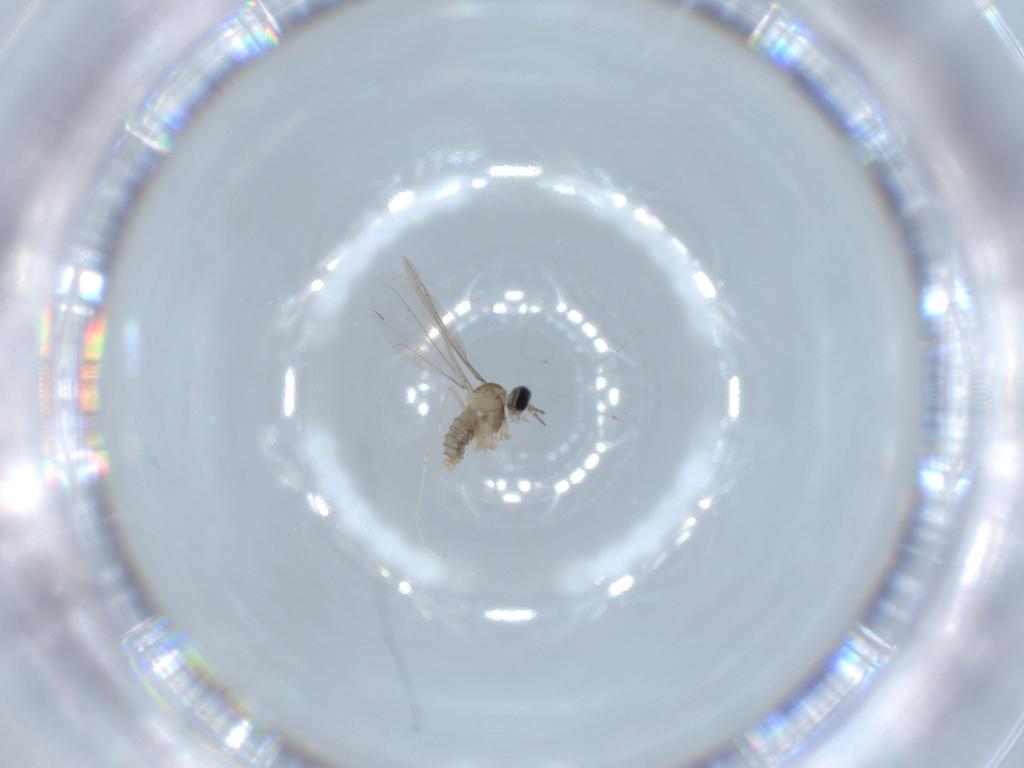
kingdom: Animalia
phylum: Arthropoda
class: Insecta
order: Diptera
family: Cecidomyiidae
